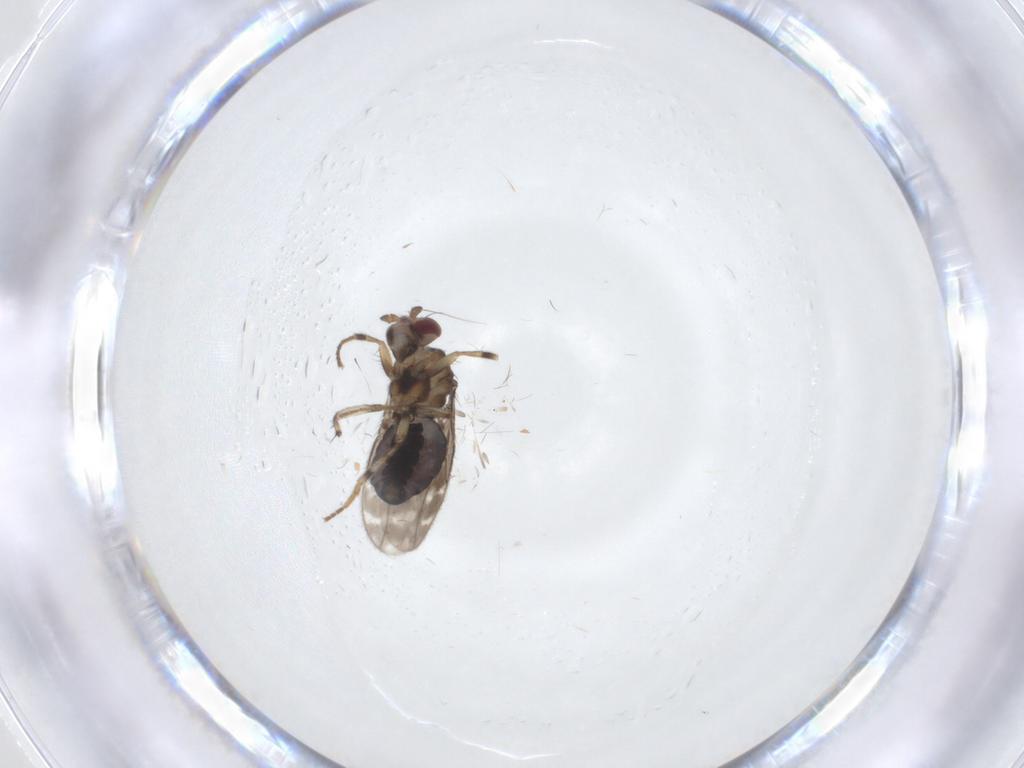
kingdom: Animalia
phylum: Arthropoda
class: Insecta
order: Diptera
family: Sphaeroceridae
